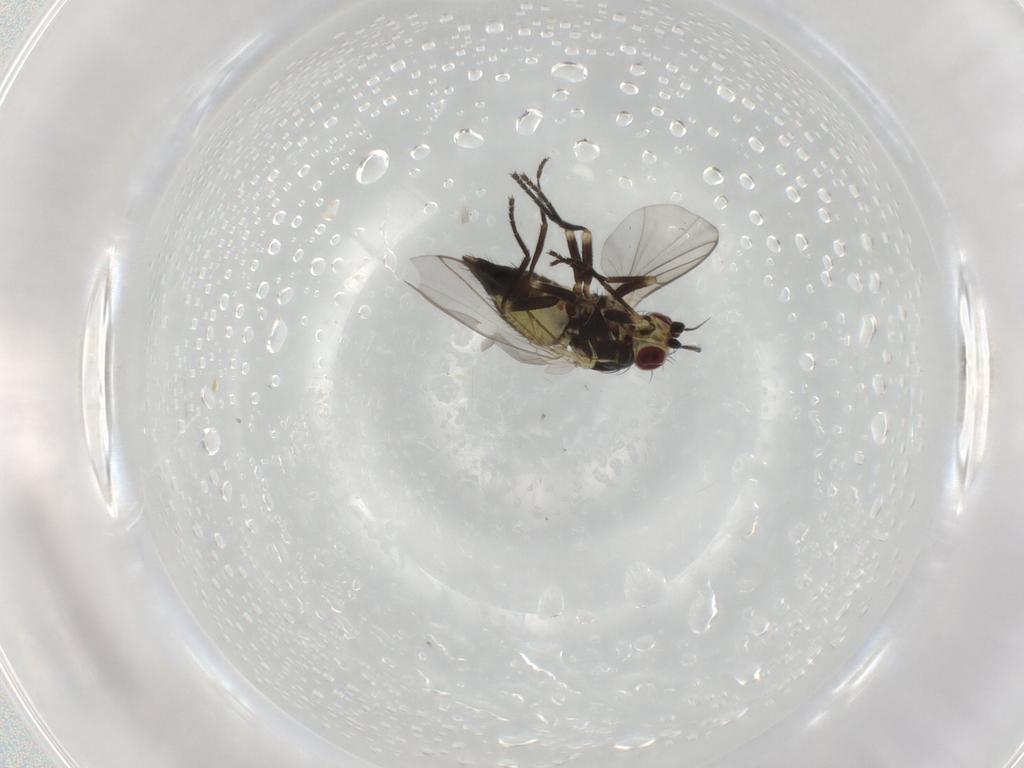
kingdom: Animalia
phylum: Arthropoda
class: Insecta
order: Diptera
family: Agromyzidae
